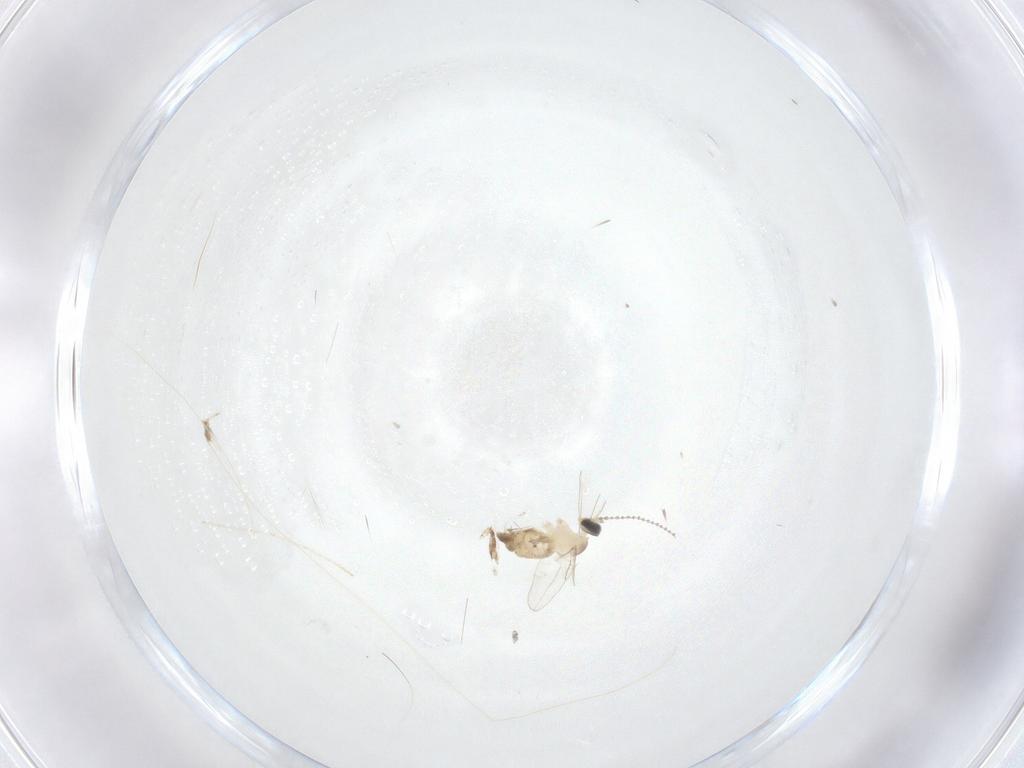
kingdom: Animalia
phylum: Arthropoda
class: Insecta
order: Diptera
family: Cecidomyiidae
